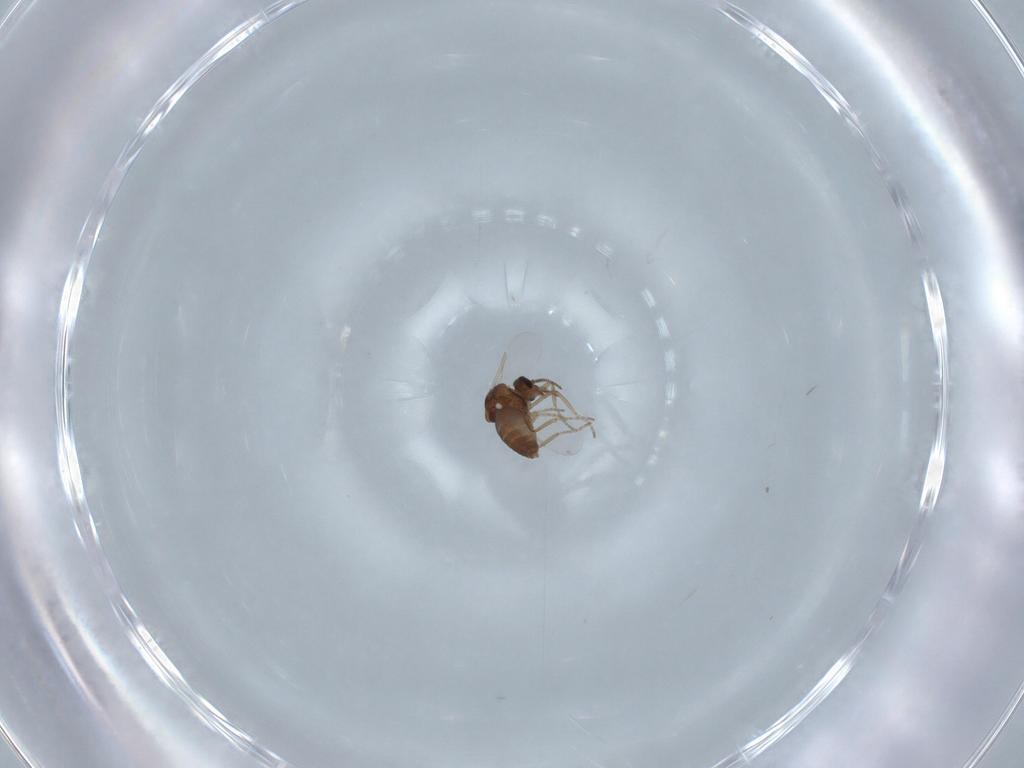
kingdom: Animalia
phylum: Arthropoda
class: Insecta
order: Diptera
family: Ceratopogonidae
